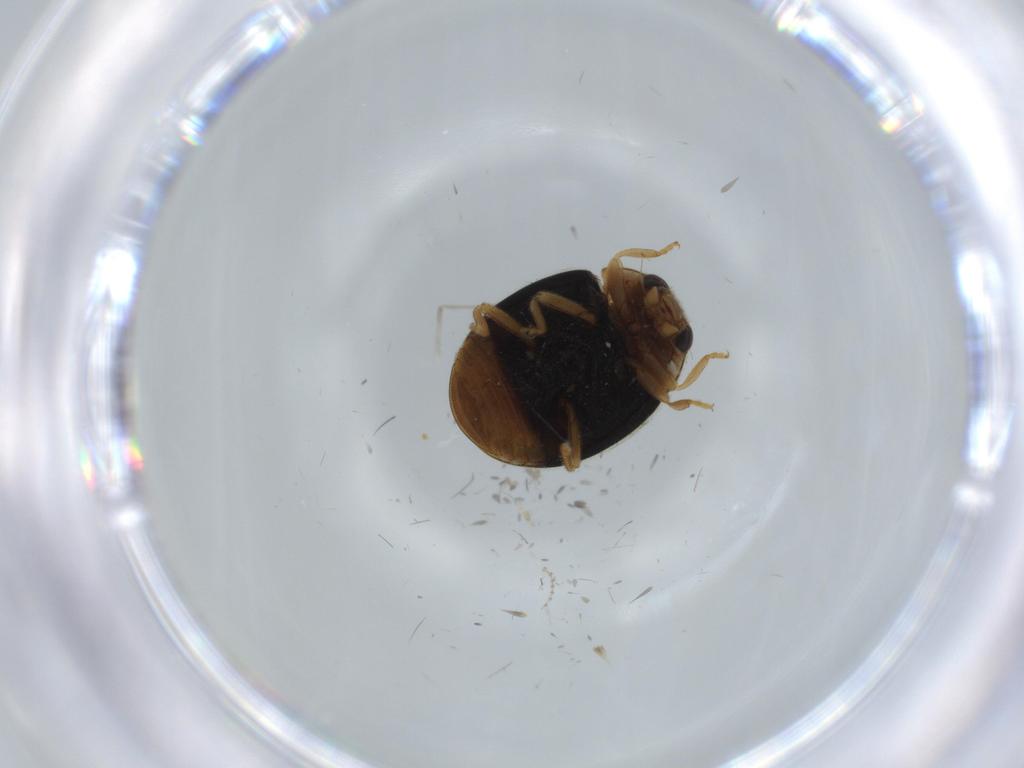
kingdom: Animalia
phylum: Arthropoda
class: Insecta
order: Coleoptera
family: Coccinellidae
